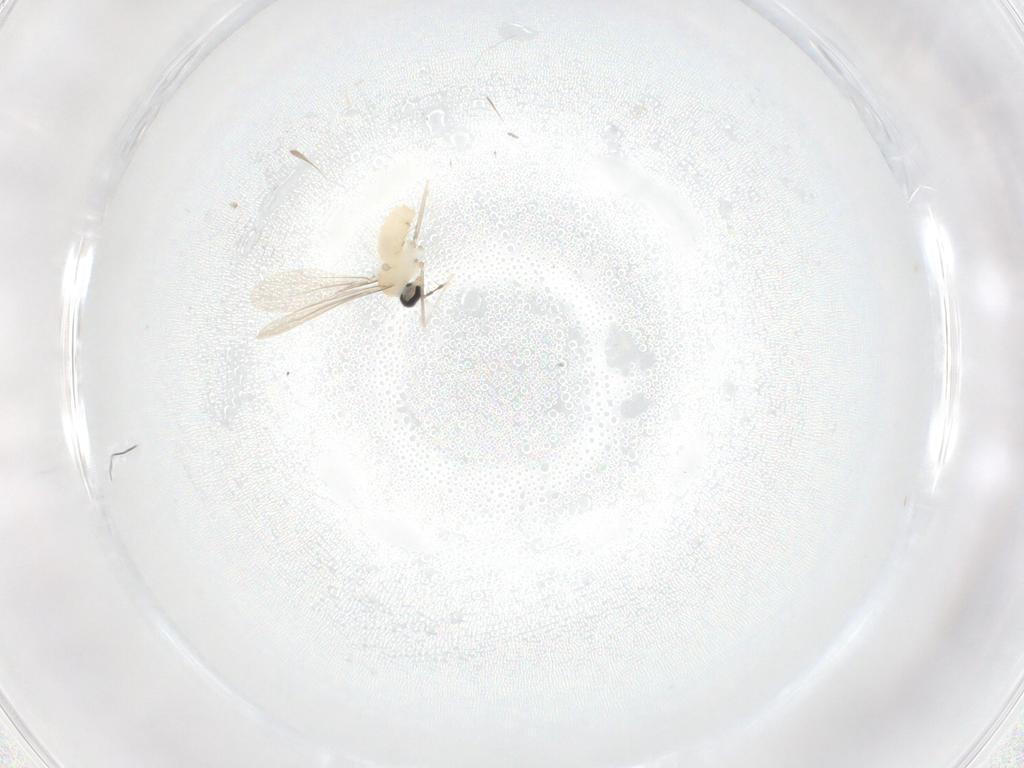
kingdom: Animalia
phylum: Arthropoda
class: Insecta
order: Diptera
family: Cecidomyiidae
